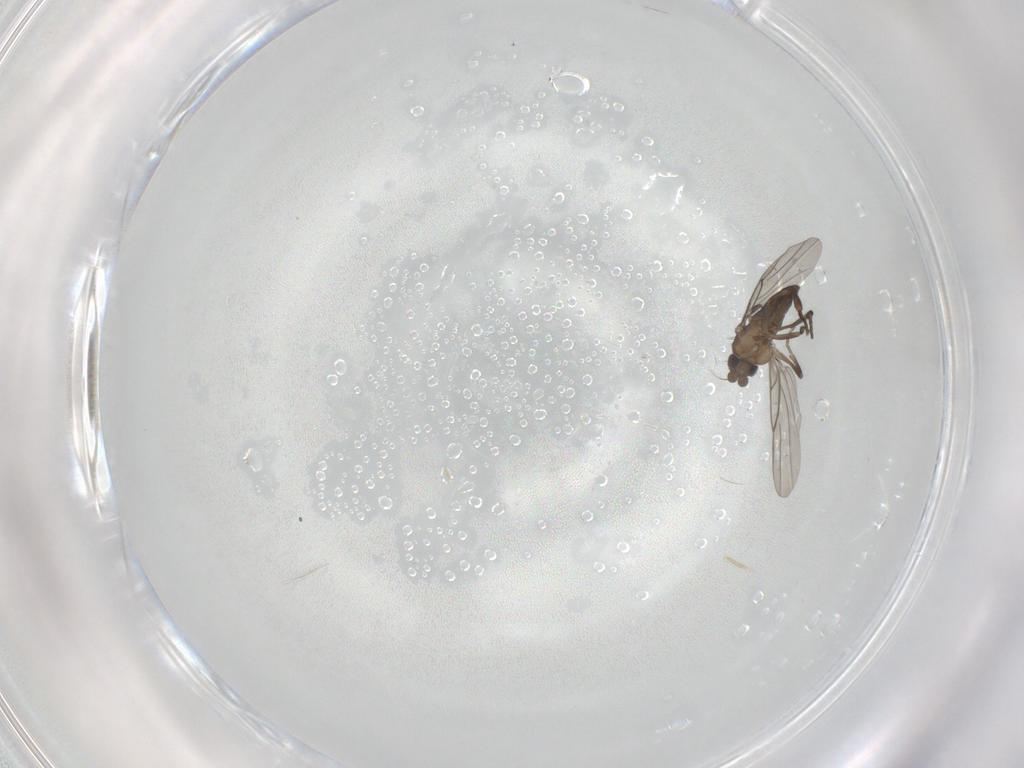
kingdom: Animalia
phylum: Arthropoda
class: Insecta
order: Diptera
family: Phoridae
